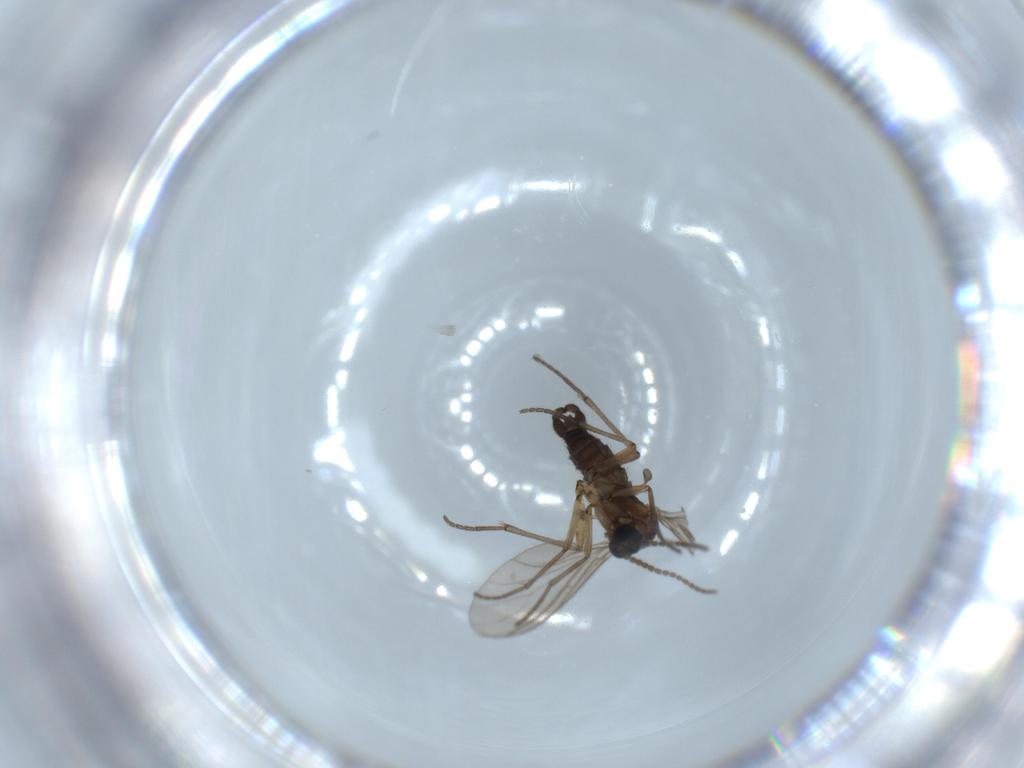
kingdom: Animalia
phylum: Arthropoda
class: Insecta
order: Diptera
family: Sciaridae
